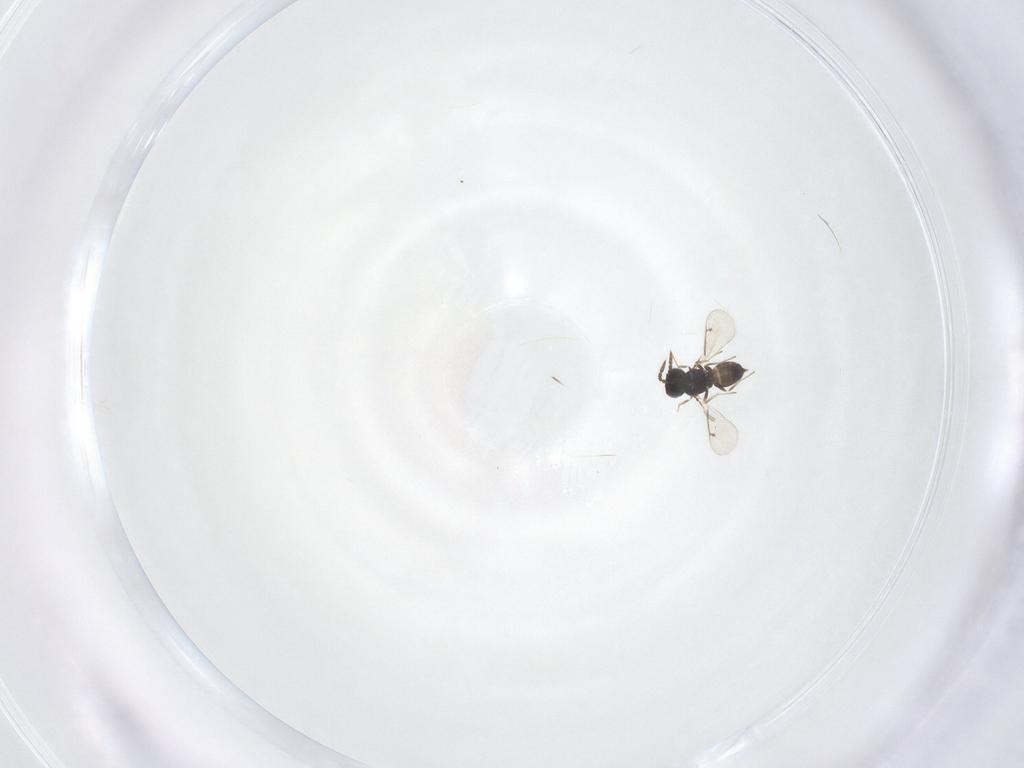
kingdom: Animalia
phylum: Arthropoda
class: Insecta
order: Hymenoptera
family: Eulophidae
